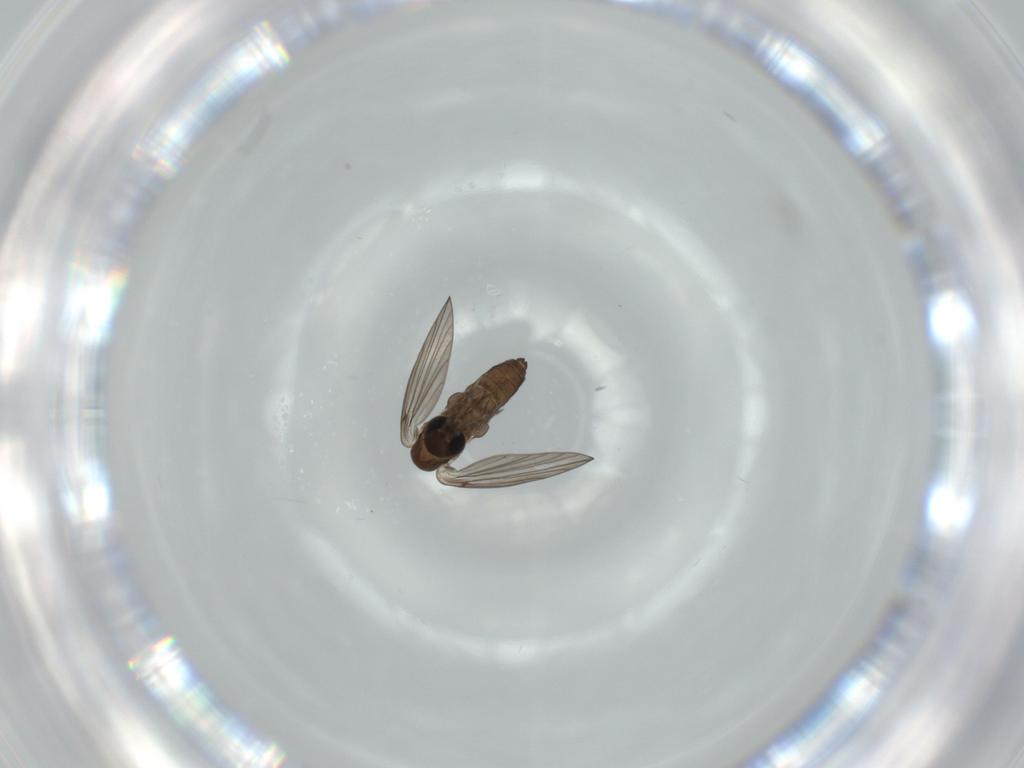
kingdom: Animalia
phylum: Arthropoda
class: Insecta
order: Diptera
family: Psychodidae
